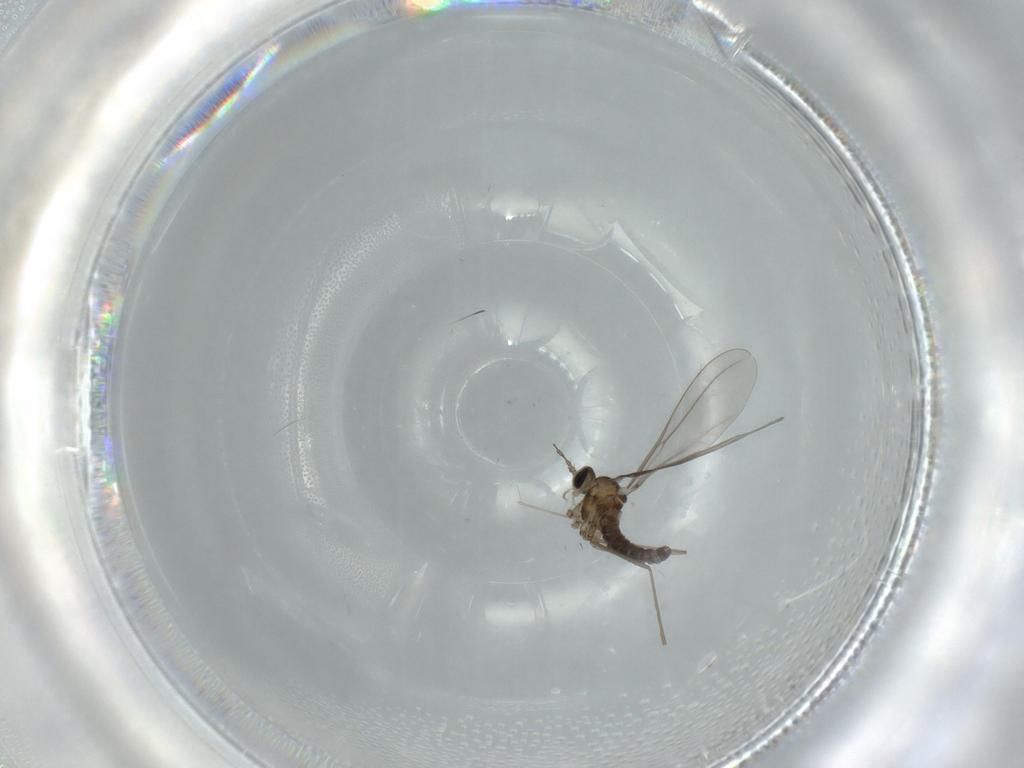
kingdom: Animalia
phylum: Arthropoda
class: Insecta
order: Diptera
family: Cecidomyiidae
